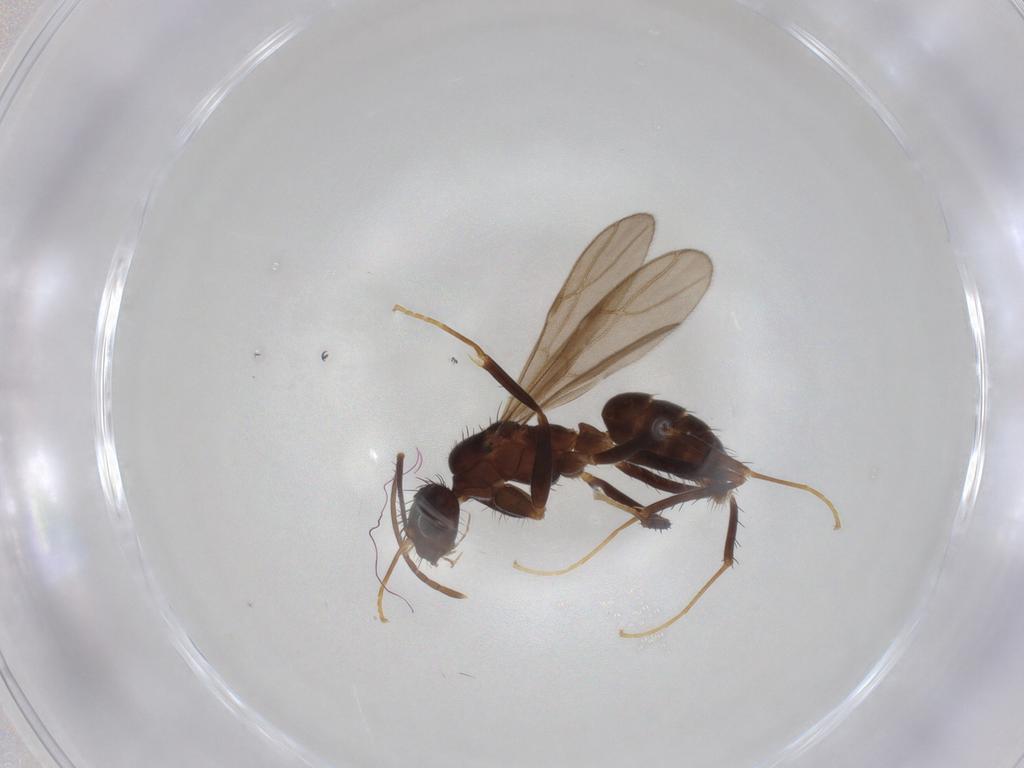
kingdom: Animalia
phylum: Arthropoda
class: Insecta
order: Hymenoptera
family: Formicidae
